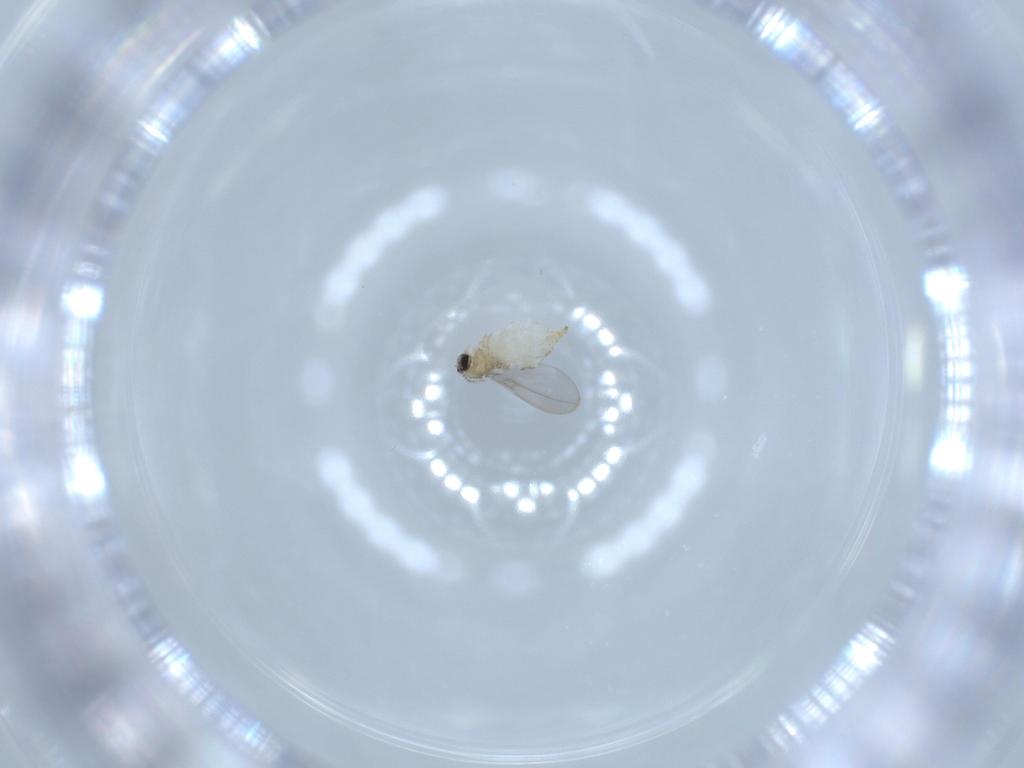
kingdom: Animalia
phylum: Arthropoda
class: Insecta
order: Diptera
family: Cecidomyiidae
